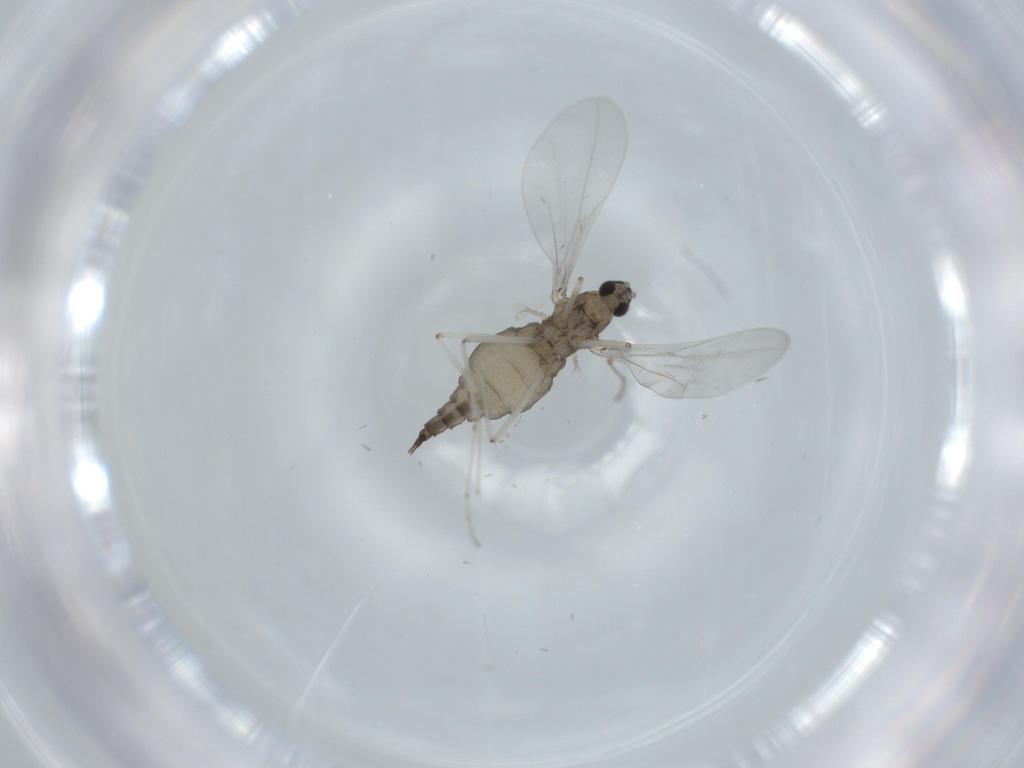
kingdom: Animalia
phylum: Arthropoda
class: Insecta
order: Diptera
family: Cecidomyiidae
